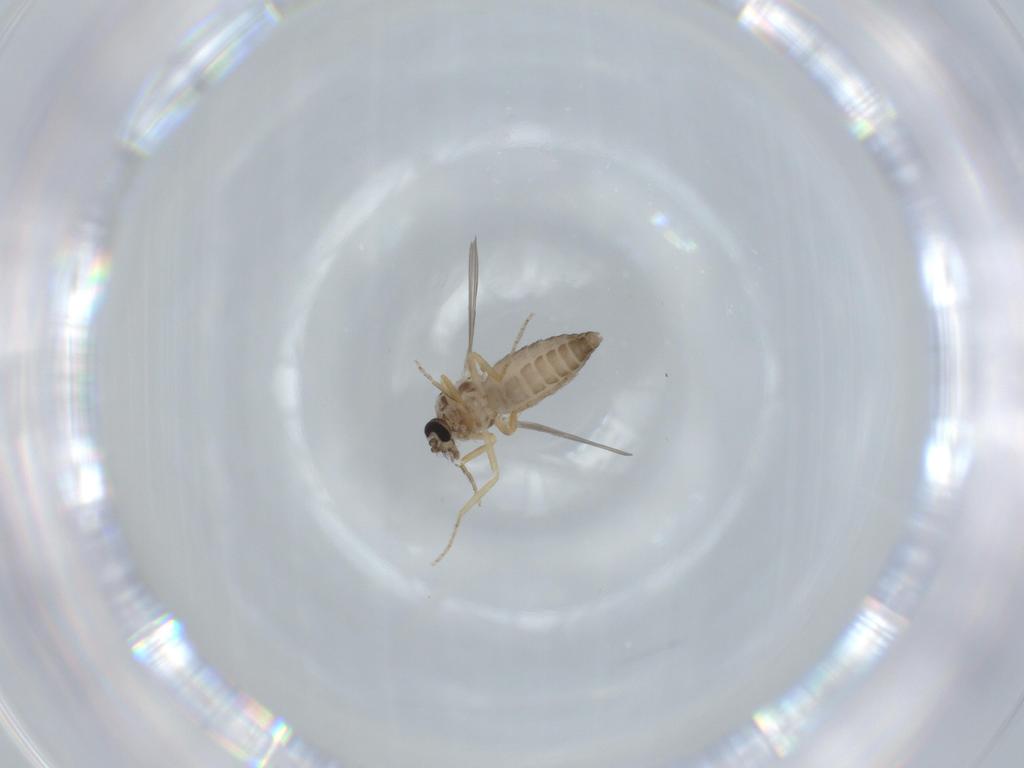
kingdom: Animalia
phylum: Arthropoda
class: Insecta
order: Diptera
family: Ceratopogonidae
